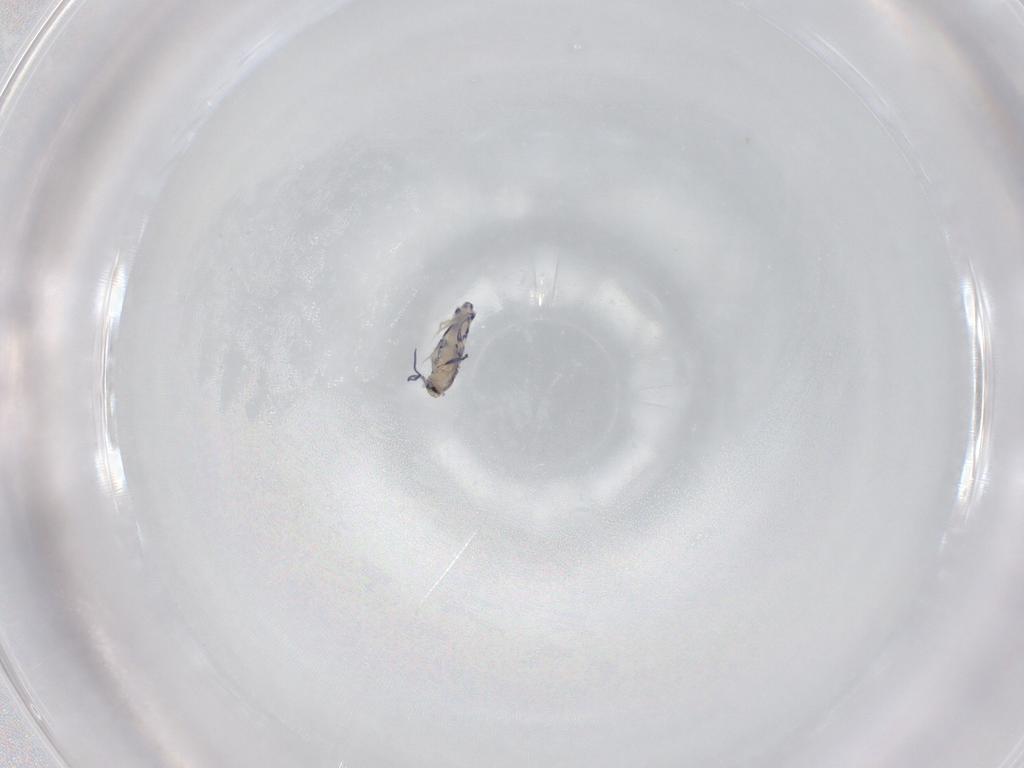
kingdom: Animalia
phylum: Arthropoda
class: Collembola
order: Entomobryomorpha
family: Entomobryidae
